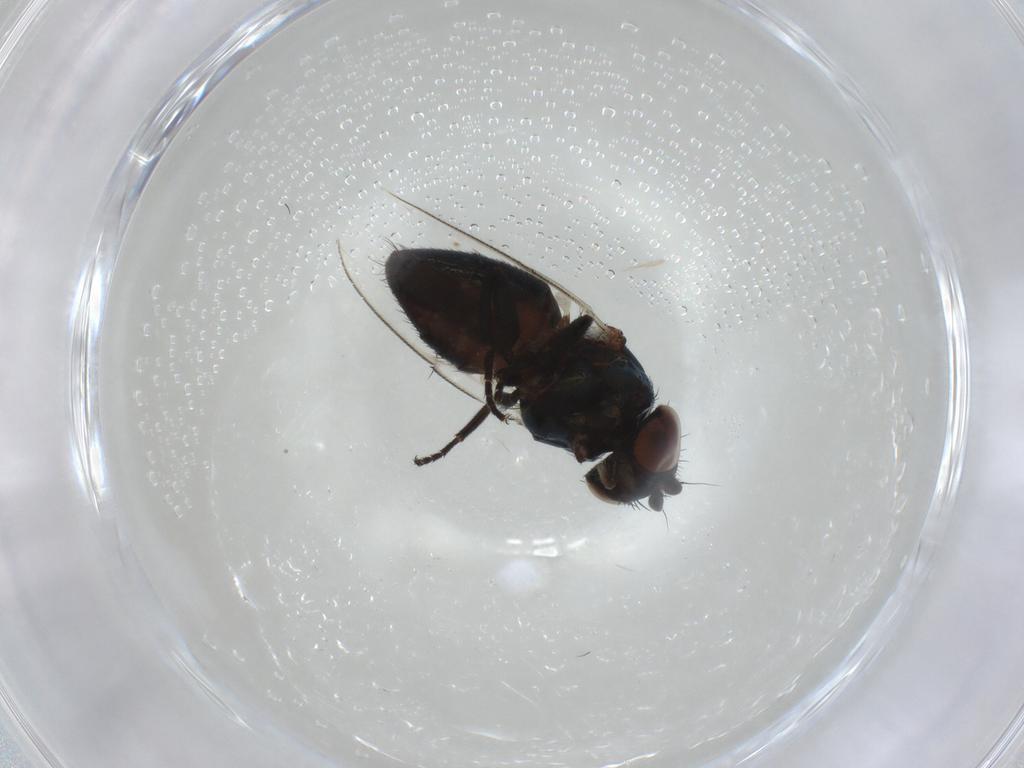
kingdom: Animalia
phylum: Arthropoda
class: Insecta
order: Diptera
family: Milichiidae
